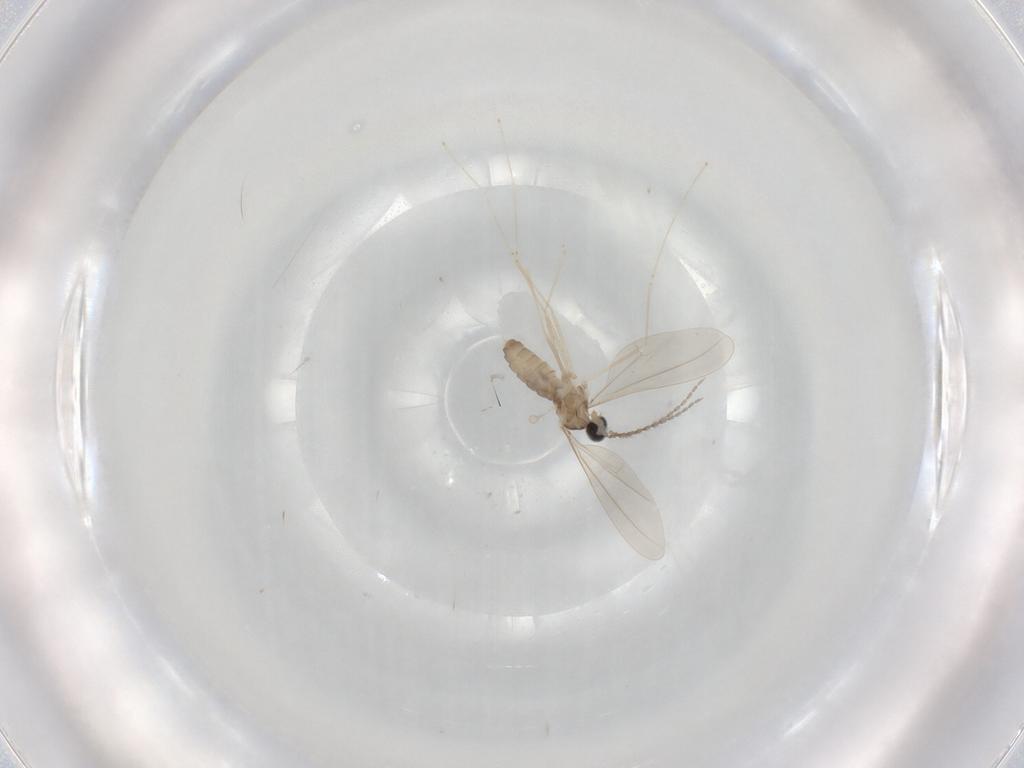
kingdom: Animalia
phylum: Arthropoda
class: Insecta
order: Diptera
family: Cecidomyiidae
